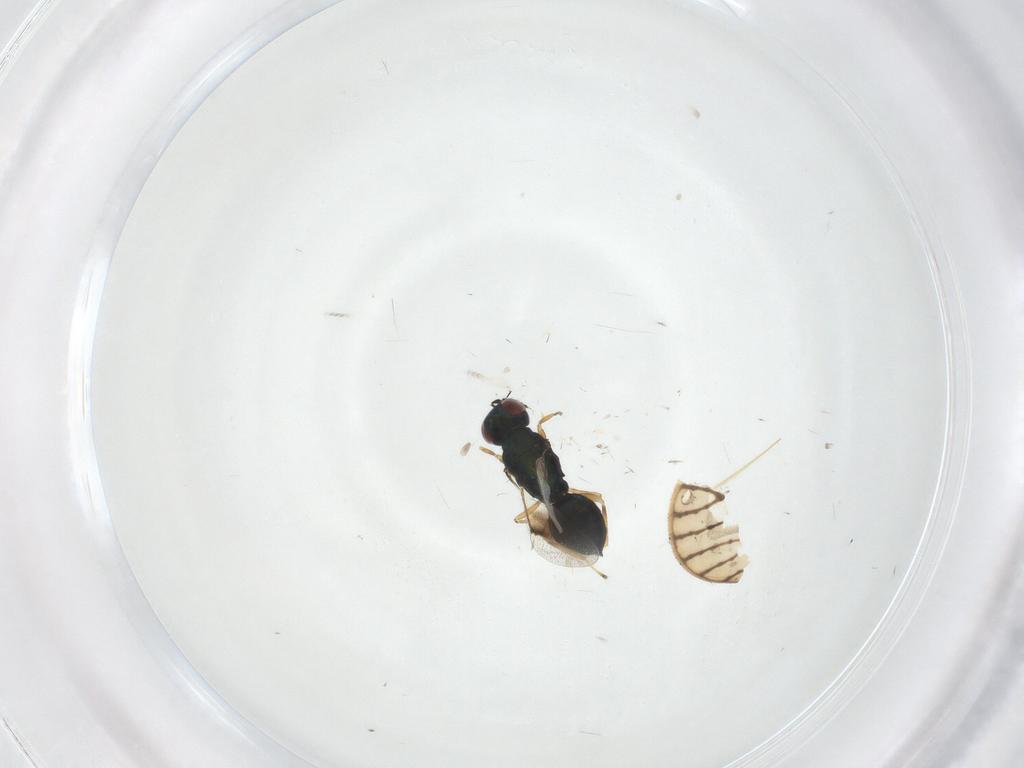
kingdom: Animalia
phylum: Arthropoda
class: Insecta
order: Hymenoptera
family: Eulophidae
